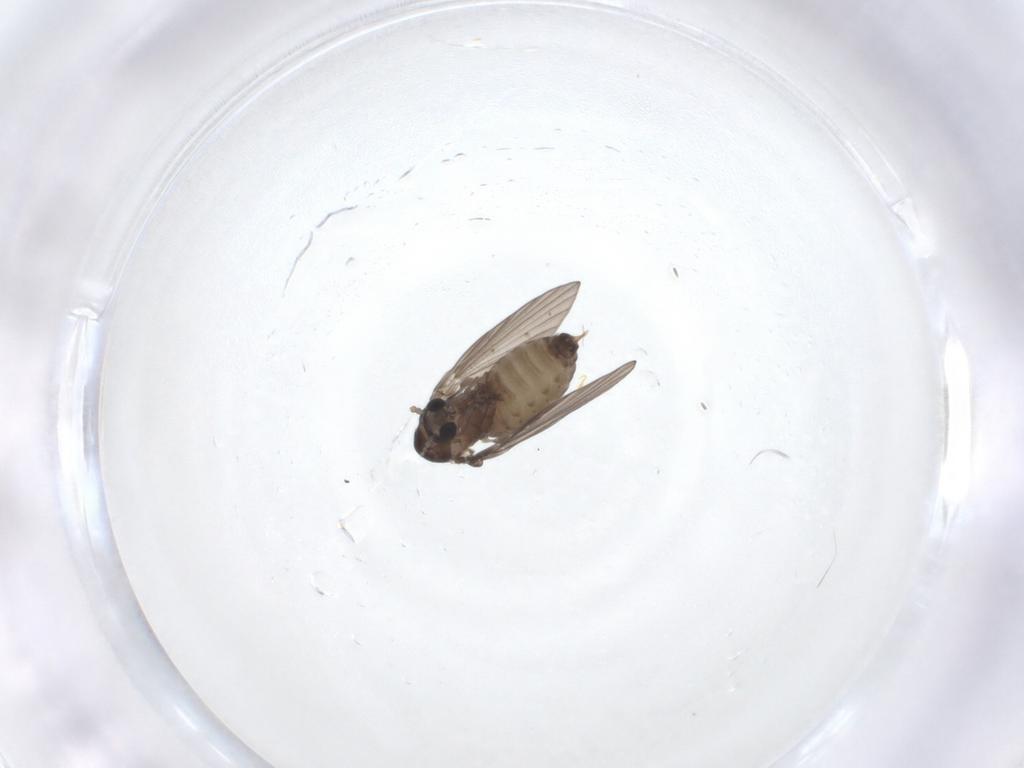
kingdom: Animalia
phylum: Arthropoda
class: Insecta
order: Diptera
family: Psychodidae
